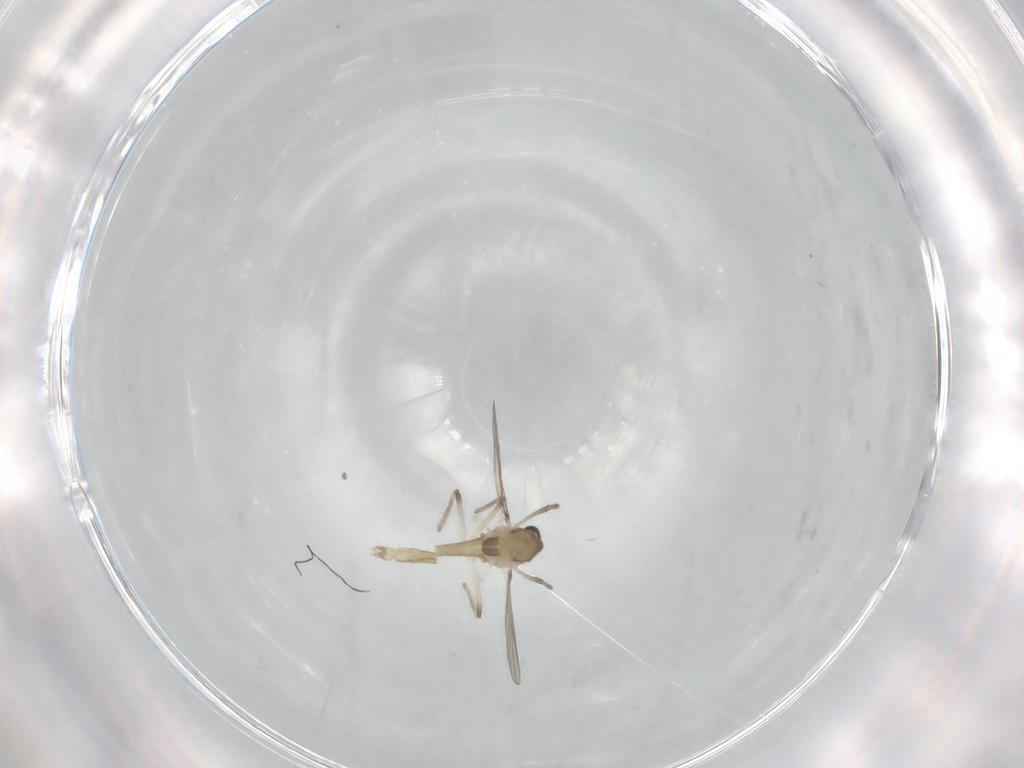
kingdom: Animalia
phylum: Arthropoda
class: Insecta
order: Diptera
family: Chironomidae
